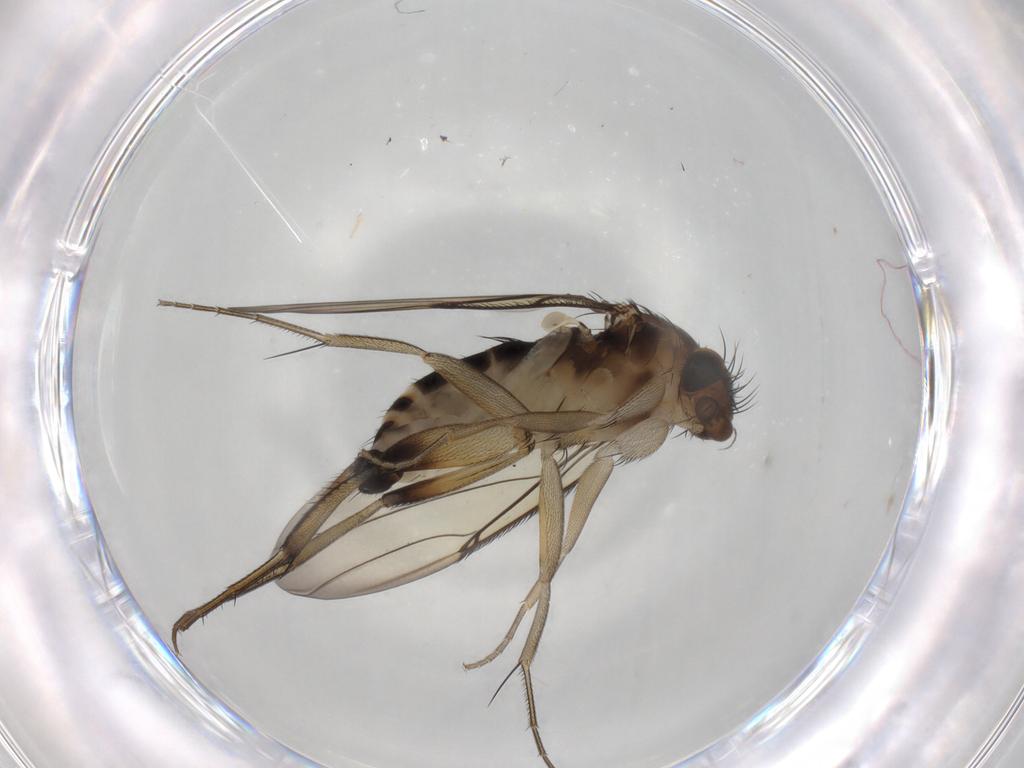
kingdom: Animalia
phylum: Arthropoda
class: Insecta
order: Diptera
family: Phoridae
